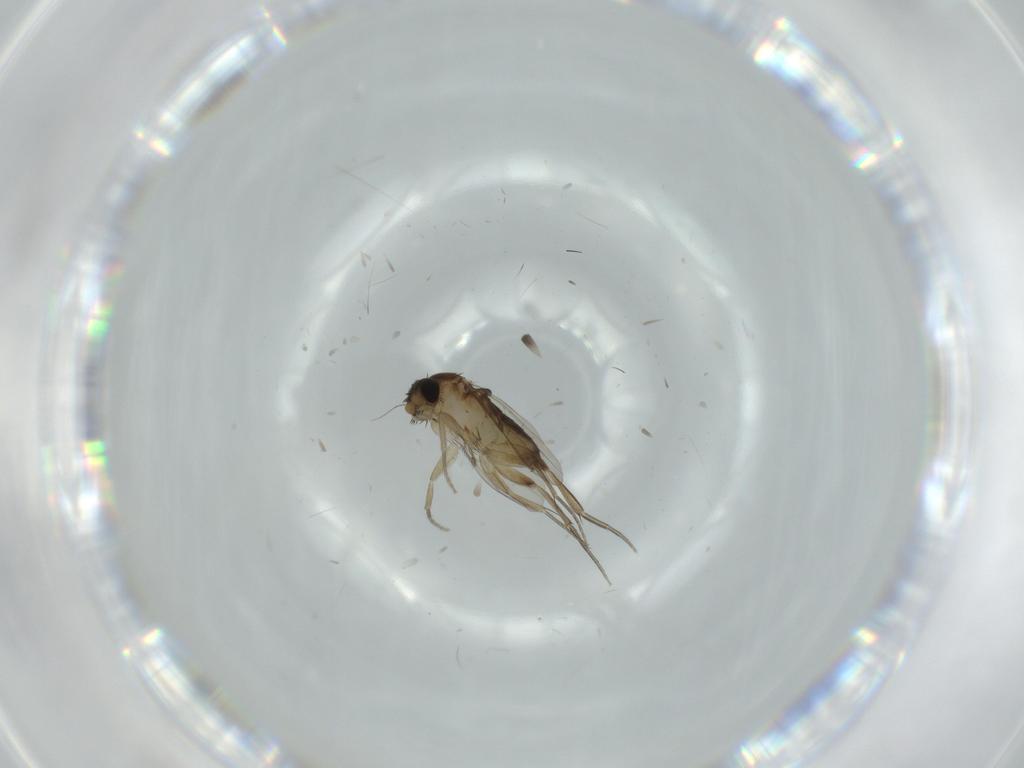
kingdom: Animalia
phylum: Arthropoda
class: Insecta
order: Diptera
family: Phoridae
